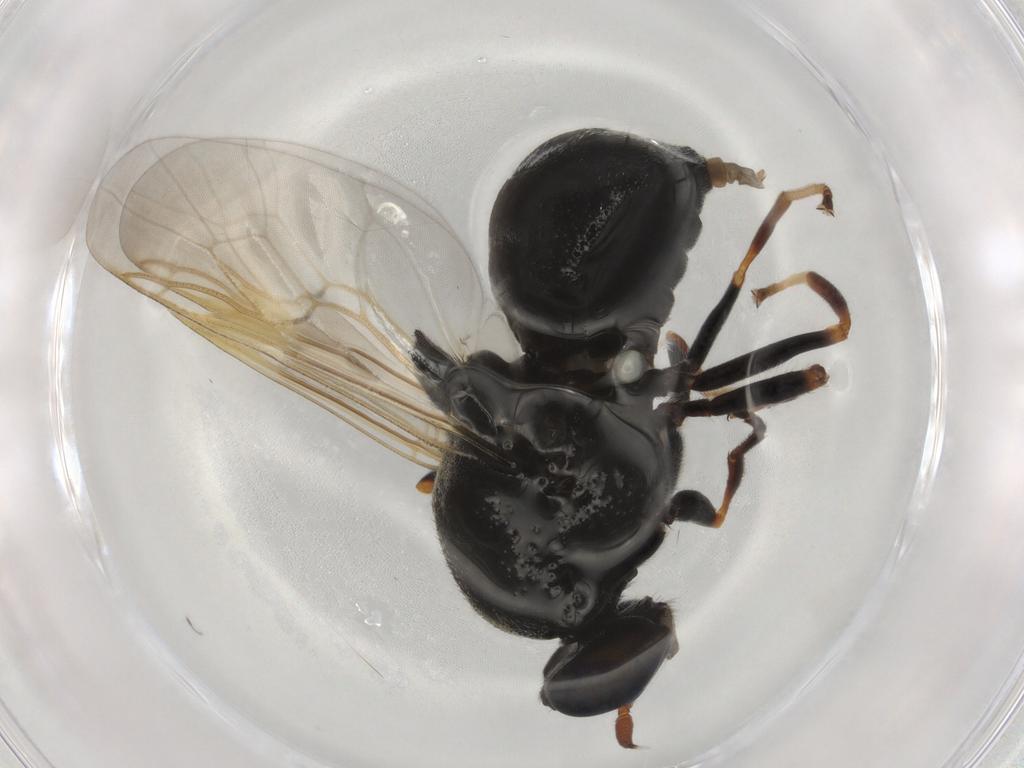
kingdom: Animalia
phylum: Arthropoda
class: Insecta
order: Diptera
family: Stratiomyidae
